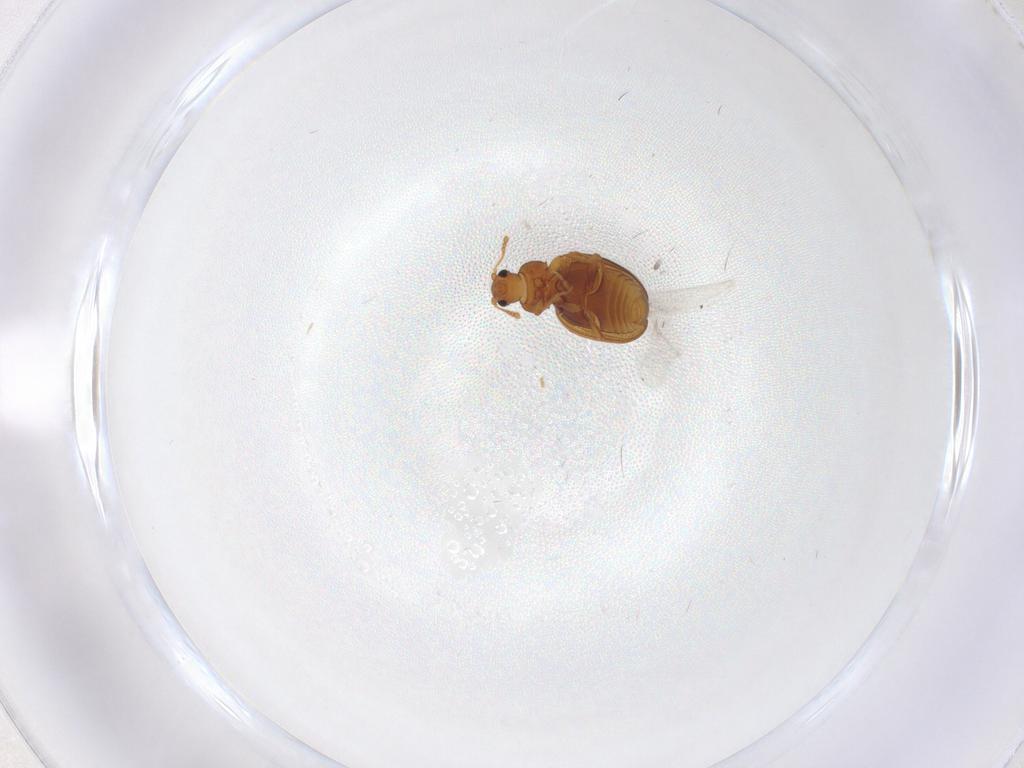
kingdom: Animalia
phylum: Arthropoda
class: Insecta
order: Coleoptera
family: Latridiidae
